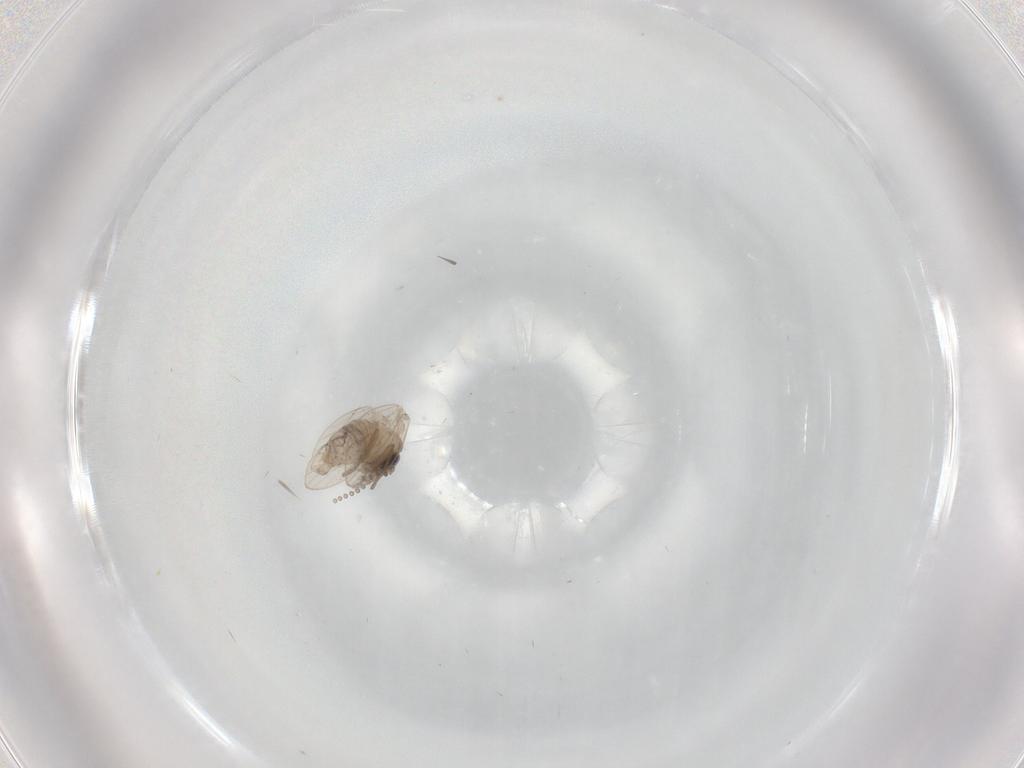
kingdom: Animalia
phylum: Arthropoda
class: Insecta
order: Diptera
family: Psychodidae
